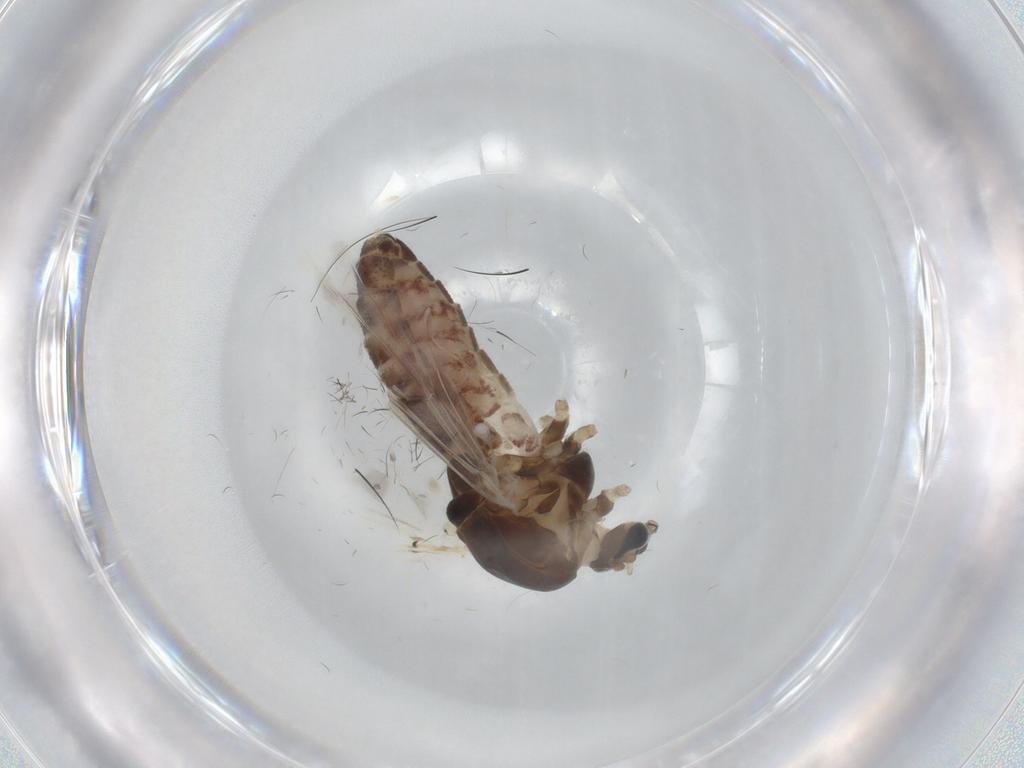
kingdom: Animalia
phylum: Arthropoda
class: Insecta
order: Diptera
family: Chironomidae
